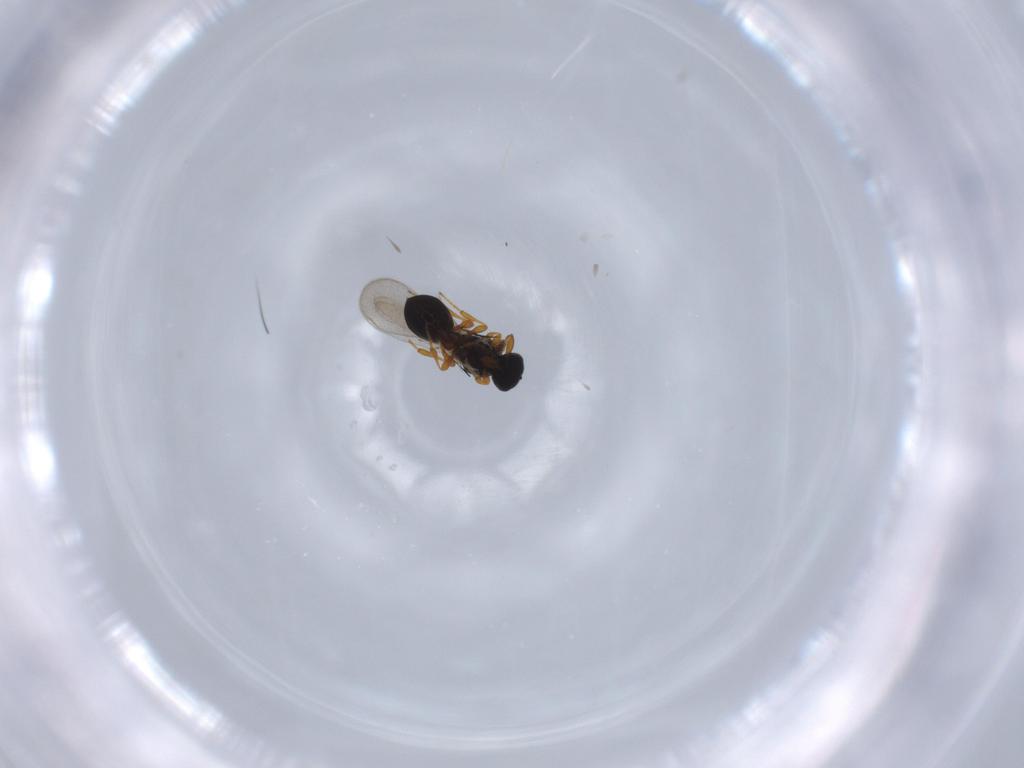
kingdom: Animalia
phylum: Arthropoda
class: Insecta
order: Hymenoptera
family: Platygastridae
